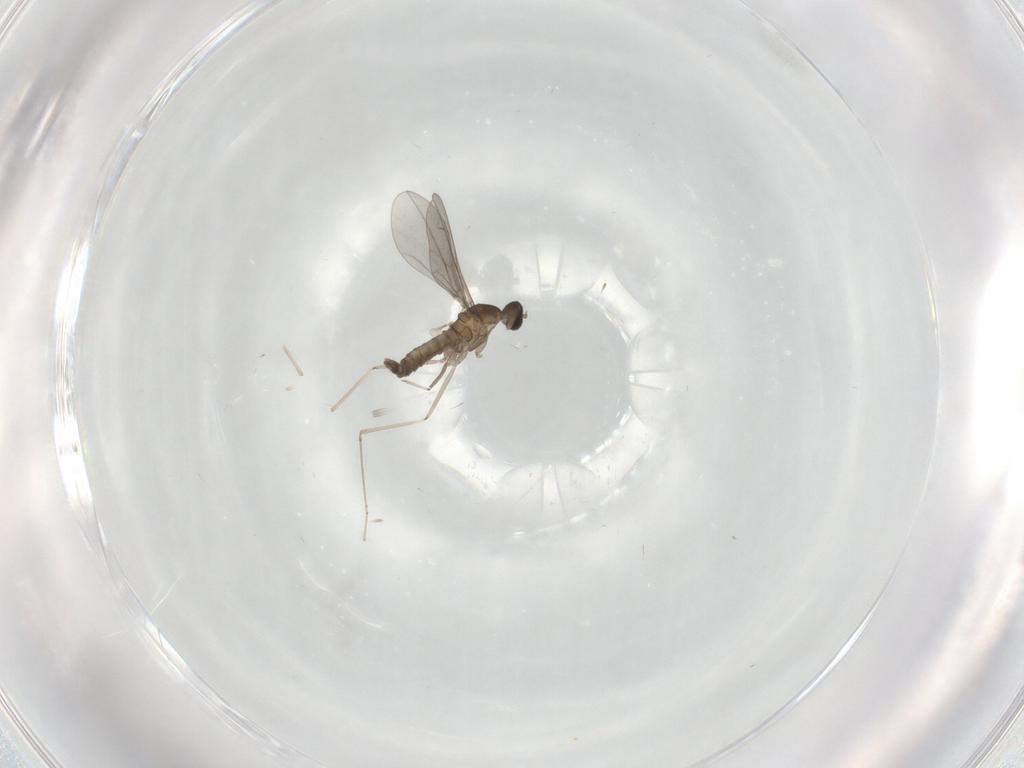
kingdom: Animalia
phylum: Arthropoda
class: Insecta
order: Diptera
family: Cecidomyiidae
